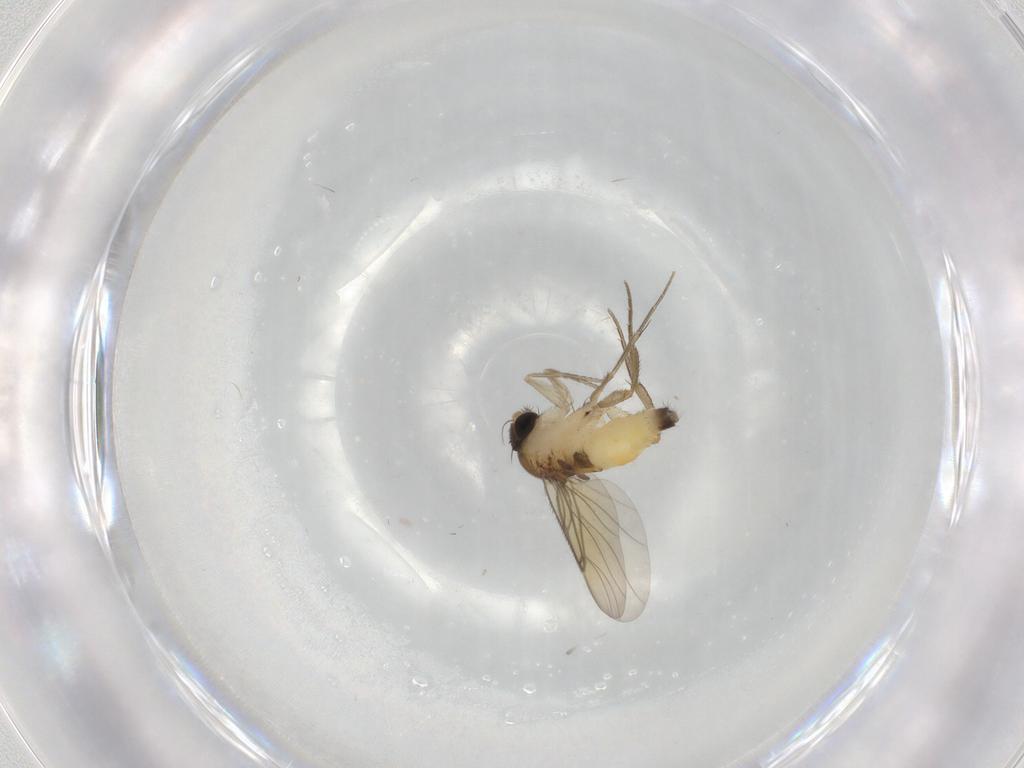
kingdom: Animalia
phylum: Arthropoda
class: Insecta
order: Diptera
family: Ceratopogonidae
